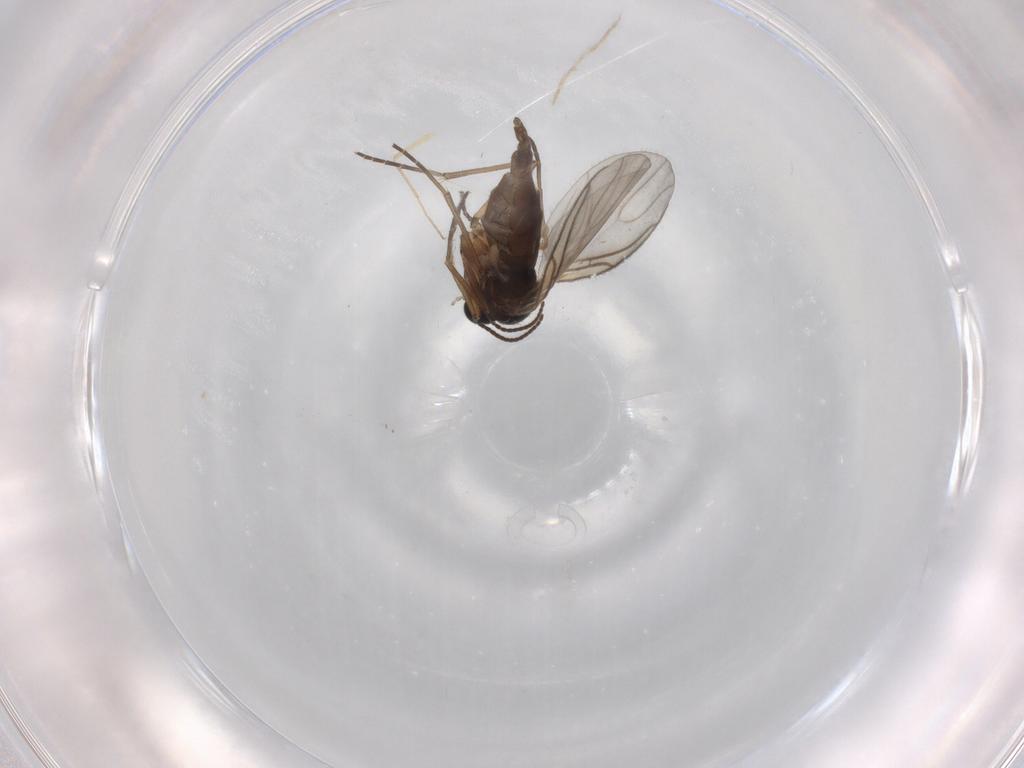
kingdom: Animalia
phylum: Arthropoda
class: Insecta
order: Diptera
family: Sciaridae
